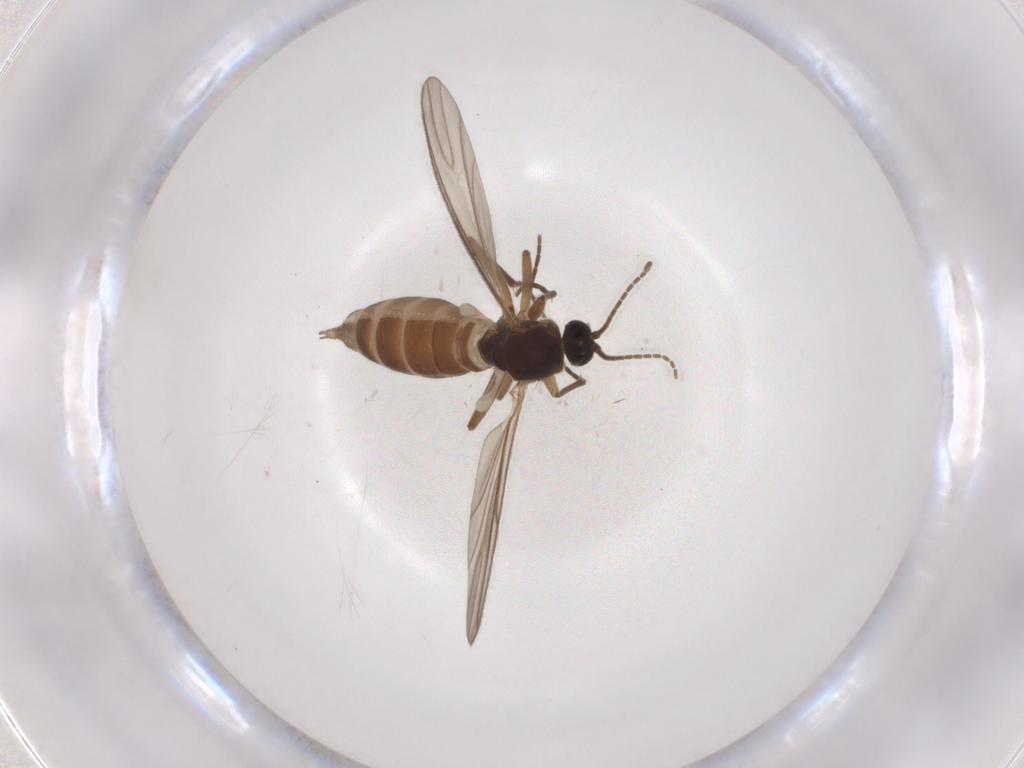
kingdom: Animalia
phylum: Arthropoda
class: Insecta
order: Diptera
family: Sciaridae
